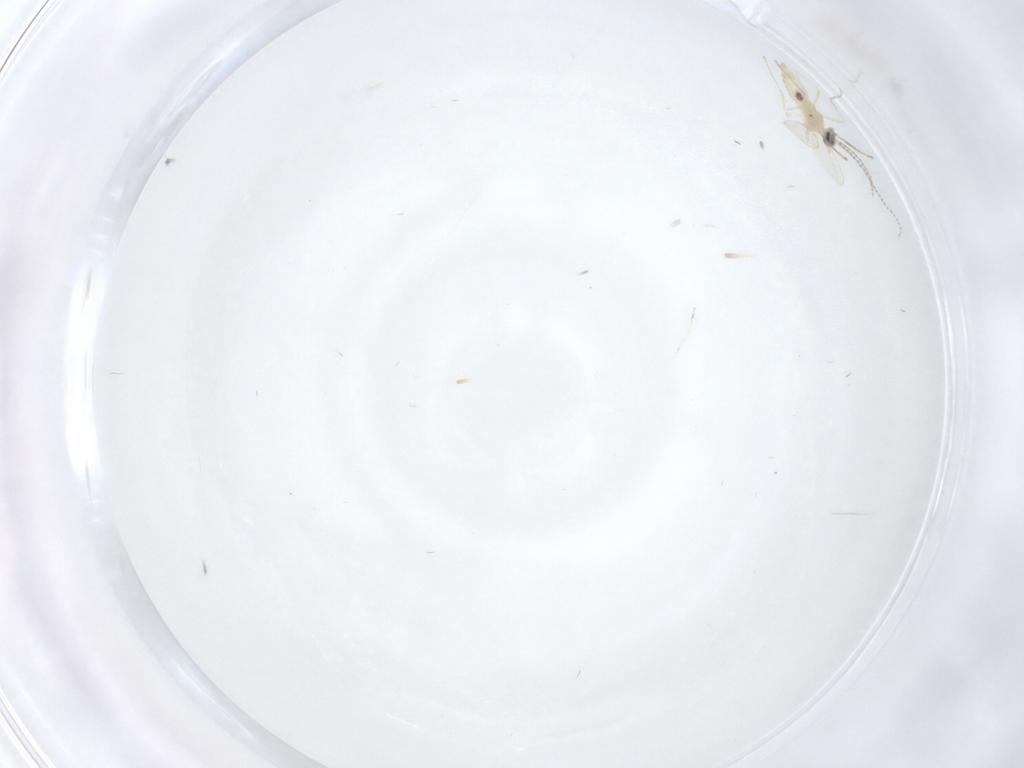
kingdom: Animalia
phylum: Arthropoda
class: Insecta
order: Diptera
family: Cecidomyiidae
